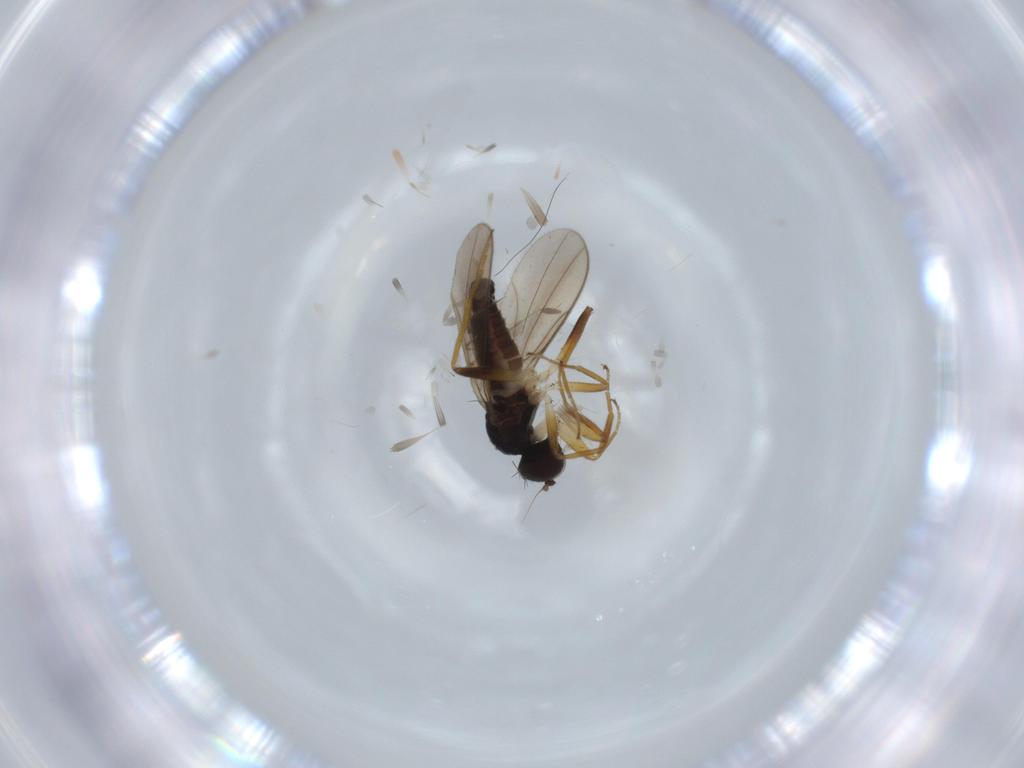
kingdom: Animalia
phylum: Arthropoda
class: Insecta
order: Diptera
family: Hybotidae
